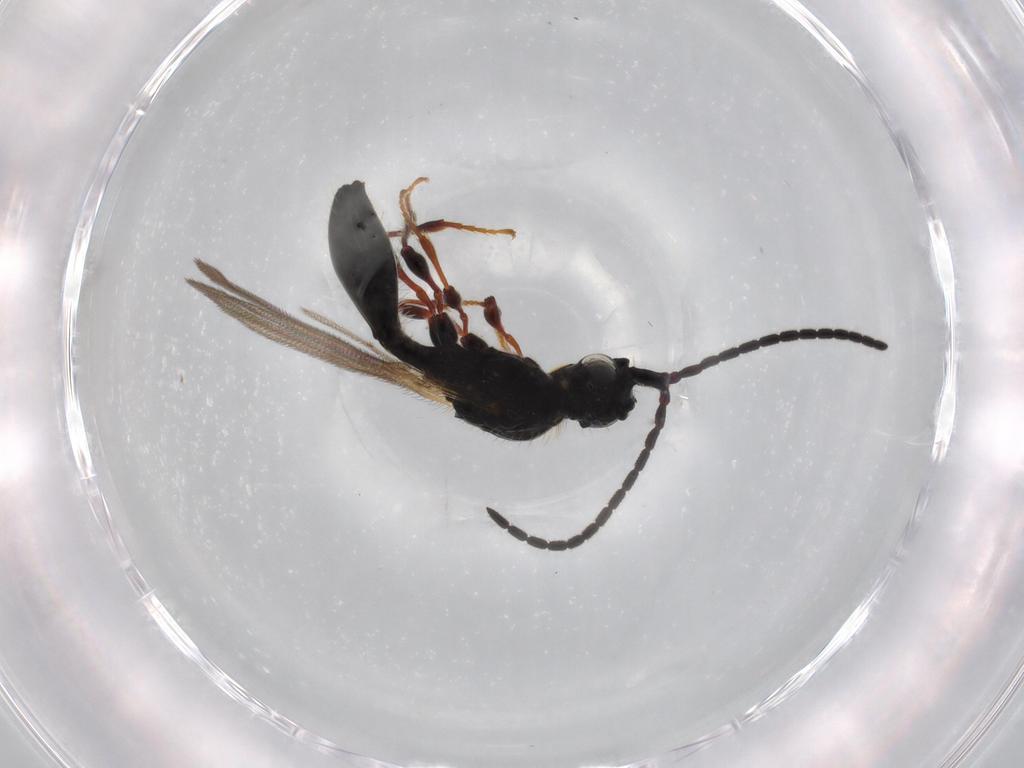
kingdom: Animalia
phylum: Arthropoda
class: Insecta
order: Hymenoptera
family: Diapriidae
